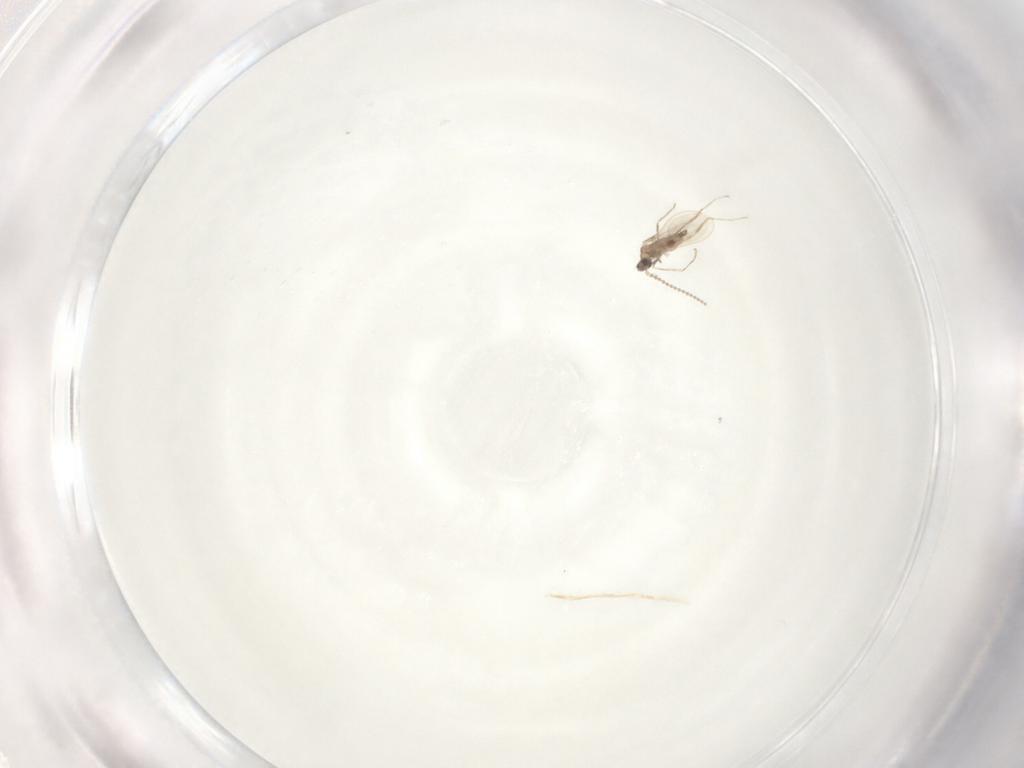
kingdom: Animalia
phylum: Arthropoda
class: Insecta
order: Diptera
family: Cecidomyiidae
